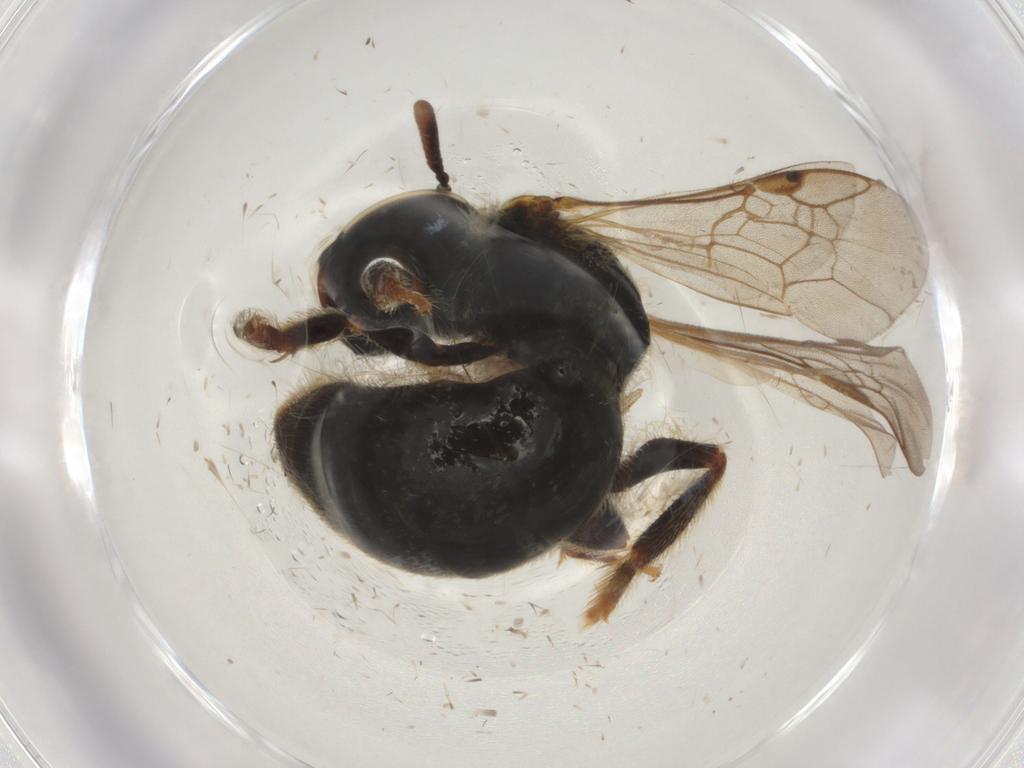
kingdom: Animalia
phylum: Arthropoda
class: Insecta
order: Hymenoptera
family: Halictidae
